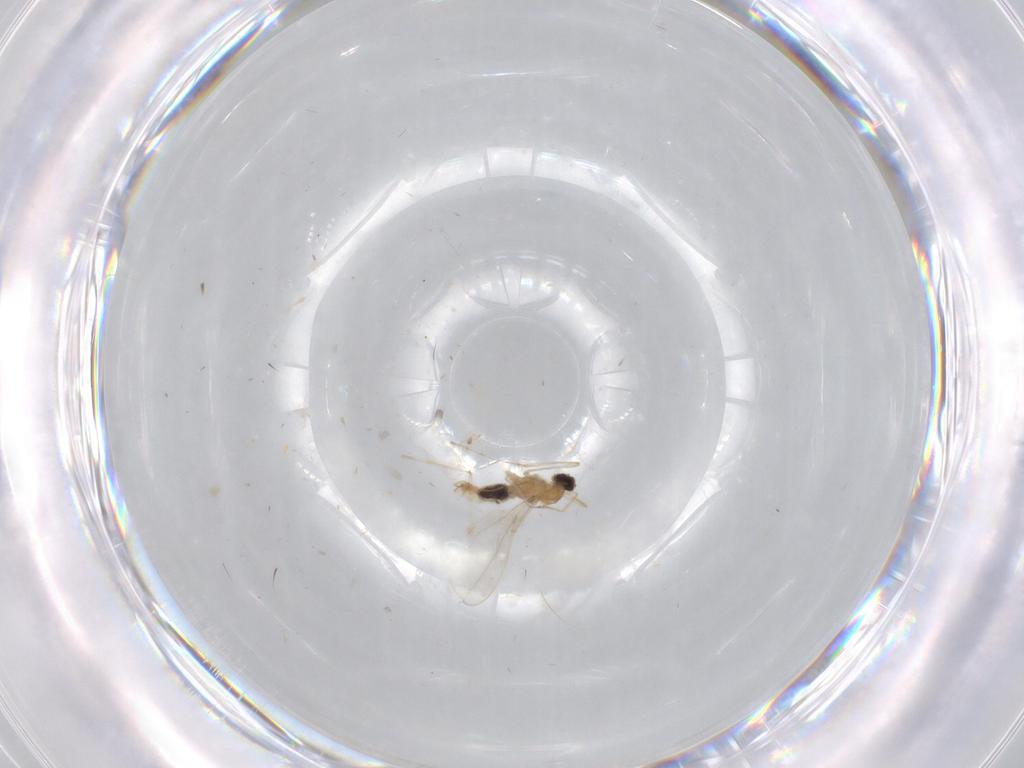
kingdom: Animalia
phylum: Arthropoda
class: Insecta
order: Diptera
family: Cecidomyiidae
